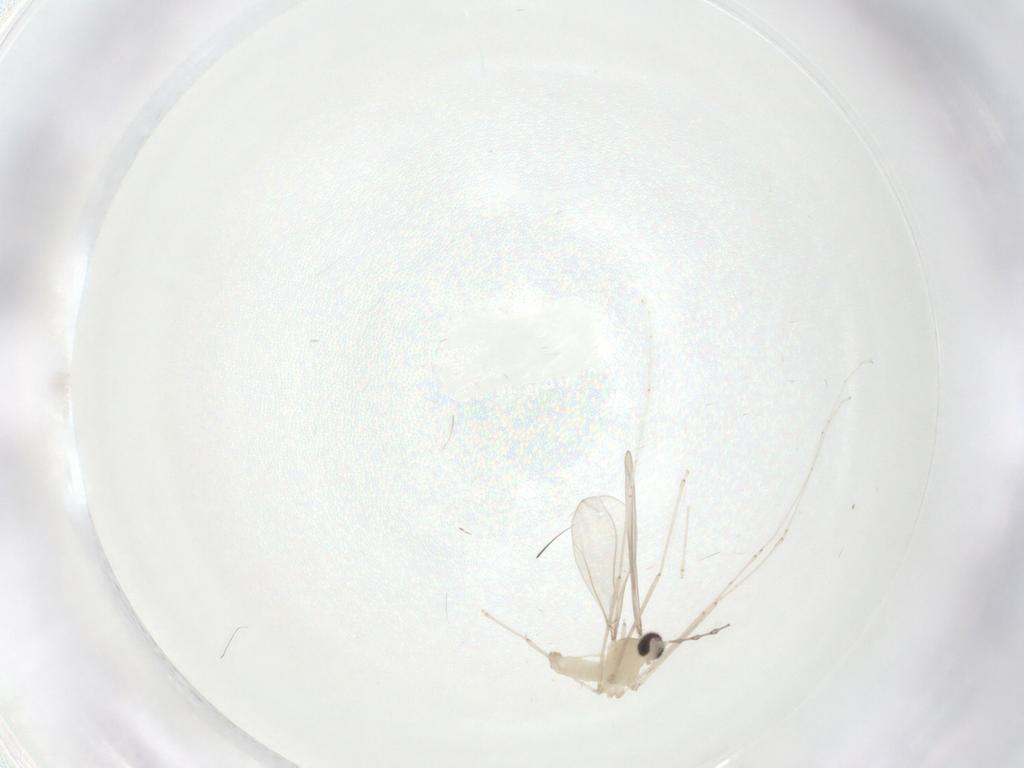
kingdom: Animalia
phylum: Arthropoda
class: Insecta
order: Diptera
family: Cecidomyiidae
